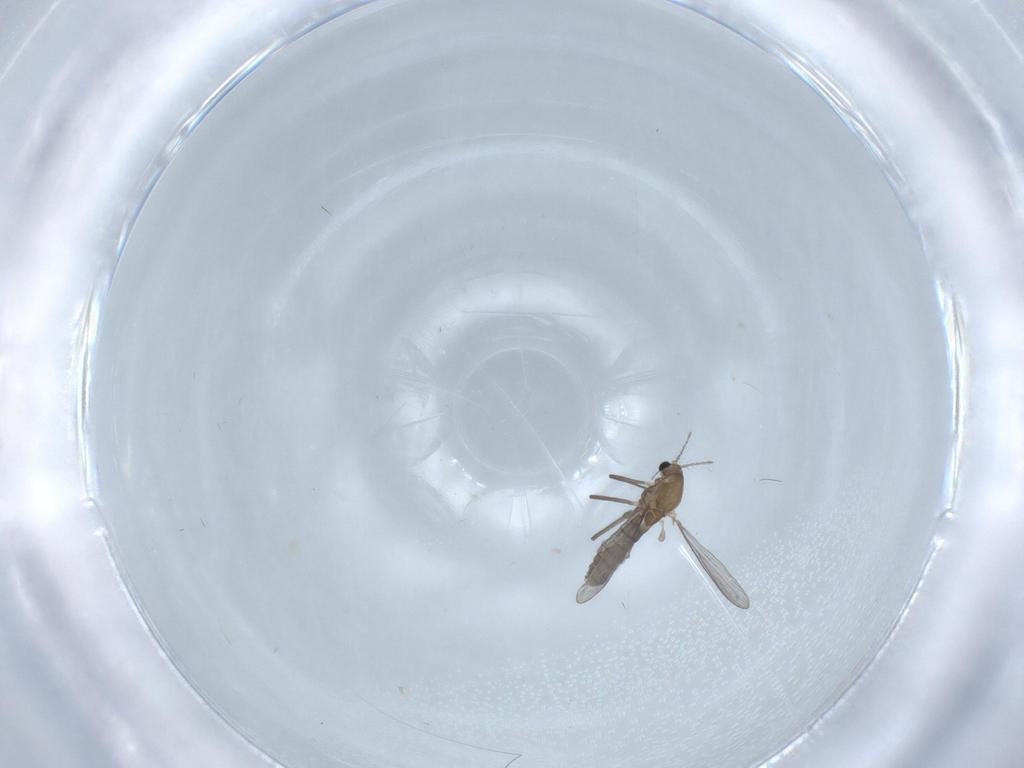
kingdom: Animalia
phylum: Arthropoda
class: Insecta
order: Diptera
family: Chironomidae
